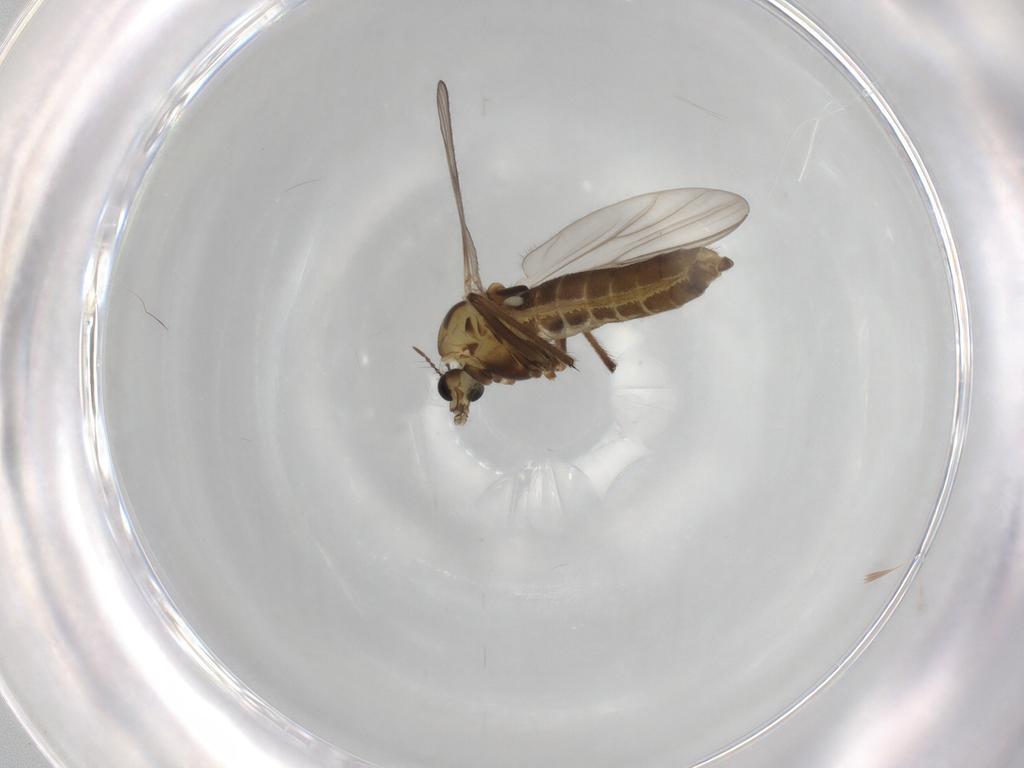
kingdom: Animalia
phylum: Arthropoda
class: Insecta
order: Diptera
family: Chironomidae
